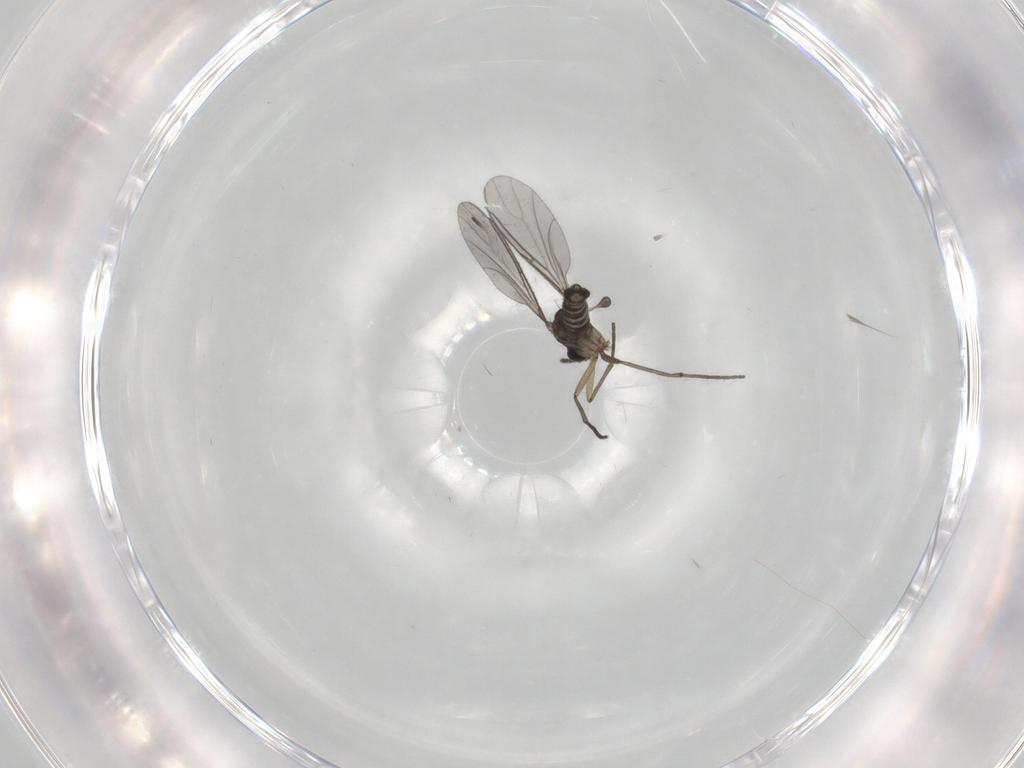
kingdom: Animalia
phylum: Arthropoda
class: Insecta
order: Diptera
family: Sciaridae
